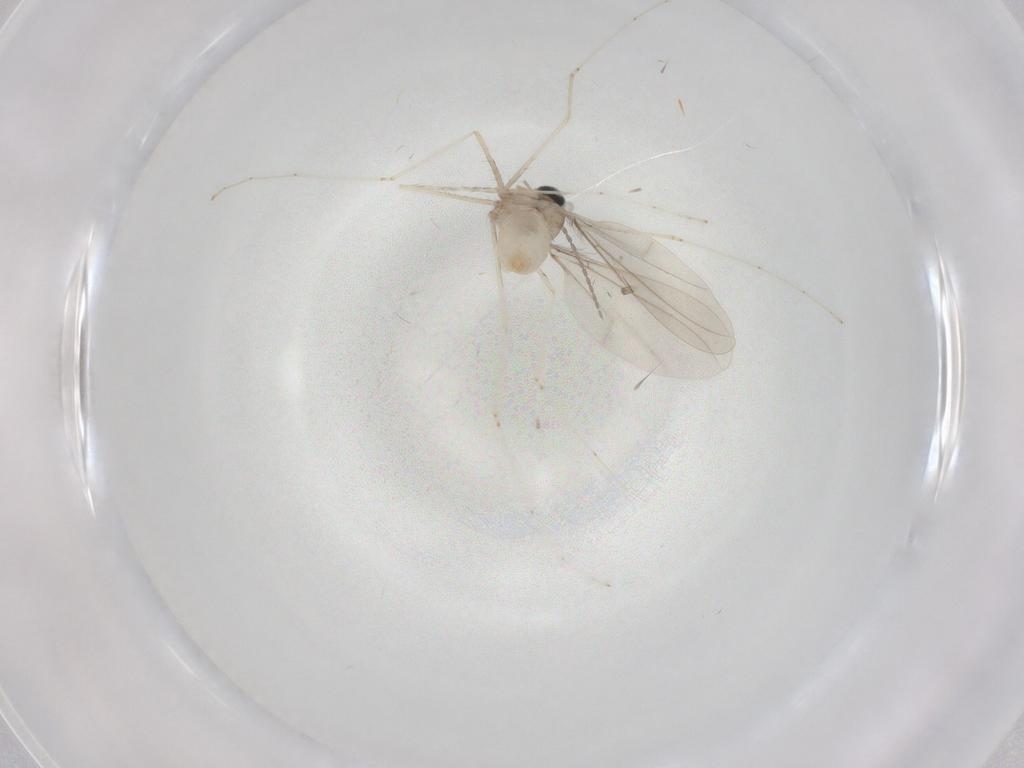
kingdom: Animalia
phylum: Arthropoda
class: Insecta
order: Diptera
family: Cecidomyiidae
